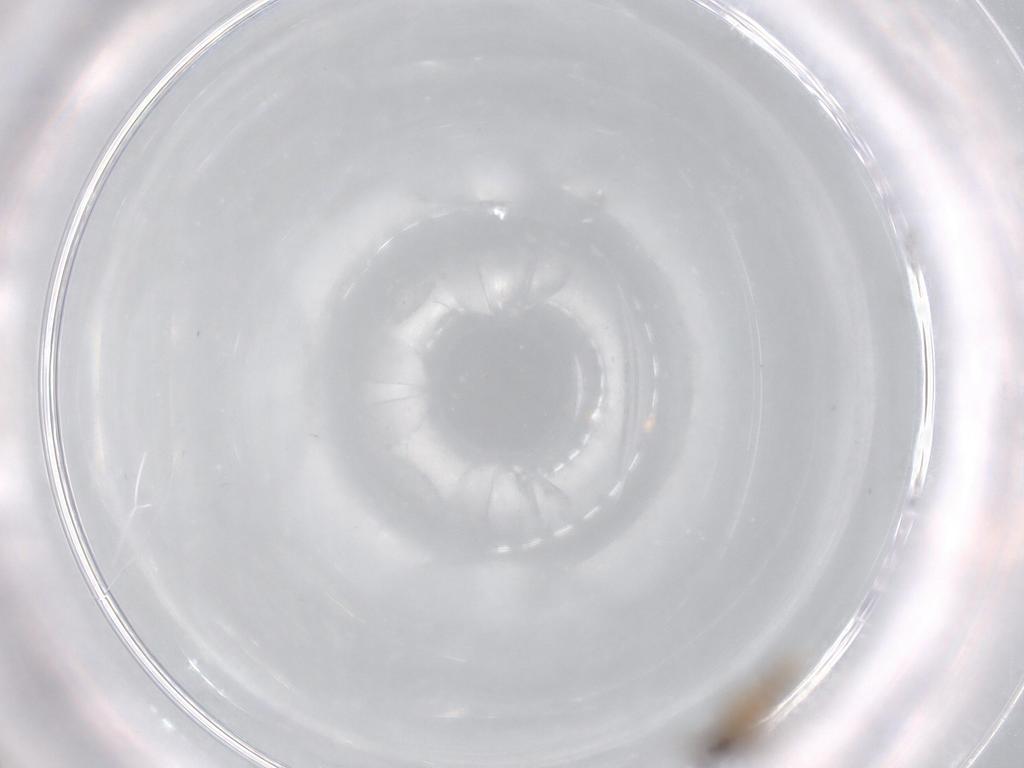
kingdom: Animalia
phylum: Arthropoda
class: Insecta
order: Diptera
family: Cecidomyiidae
